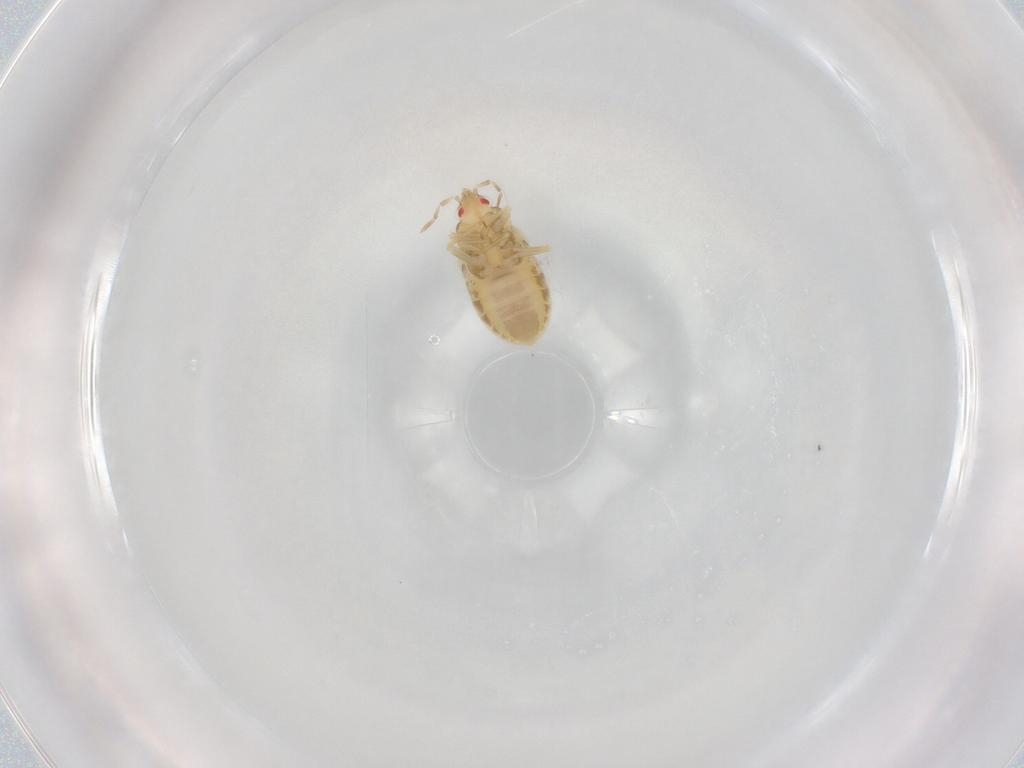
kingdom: Animalia
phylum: Arthropoda
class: Insecta
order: Hemiptera
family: Anthocoridae
